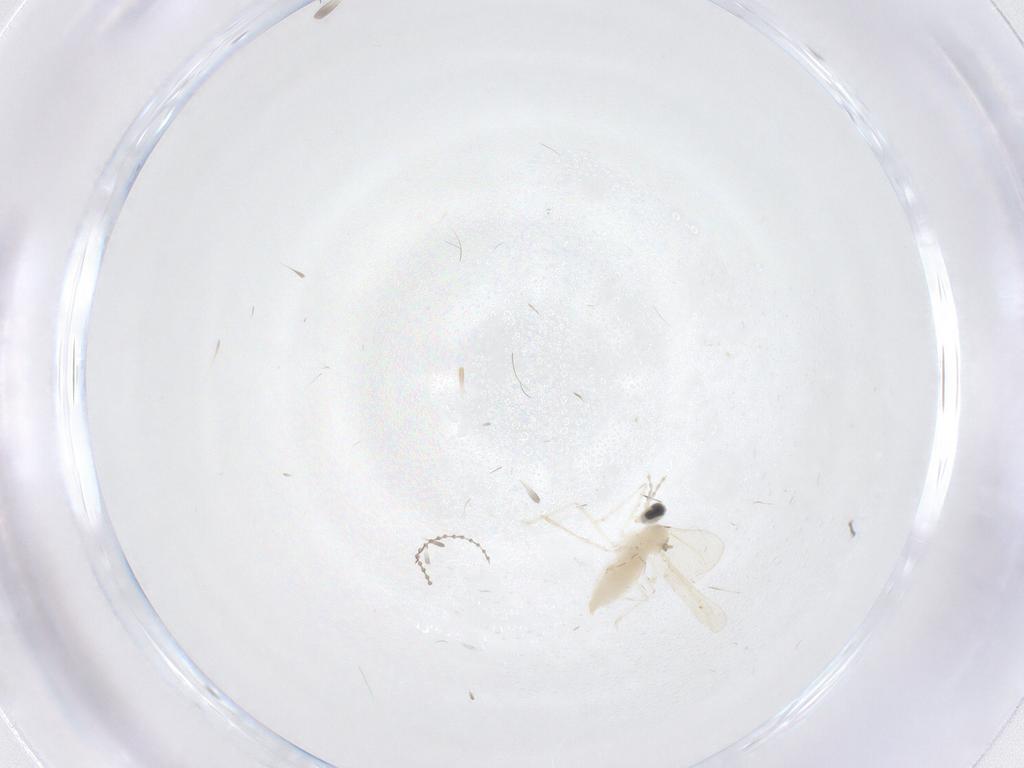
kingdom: Animalia
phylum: Arthropoda
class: Insecta
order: Diptera
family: Cecidomyiidae
